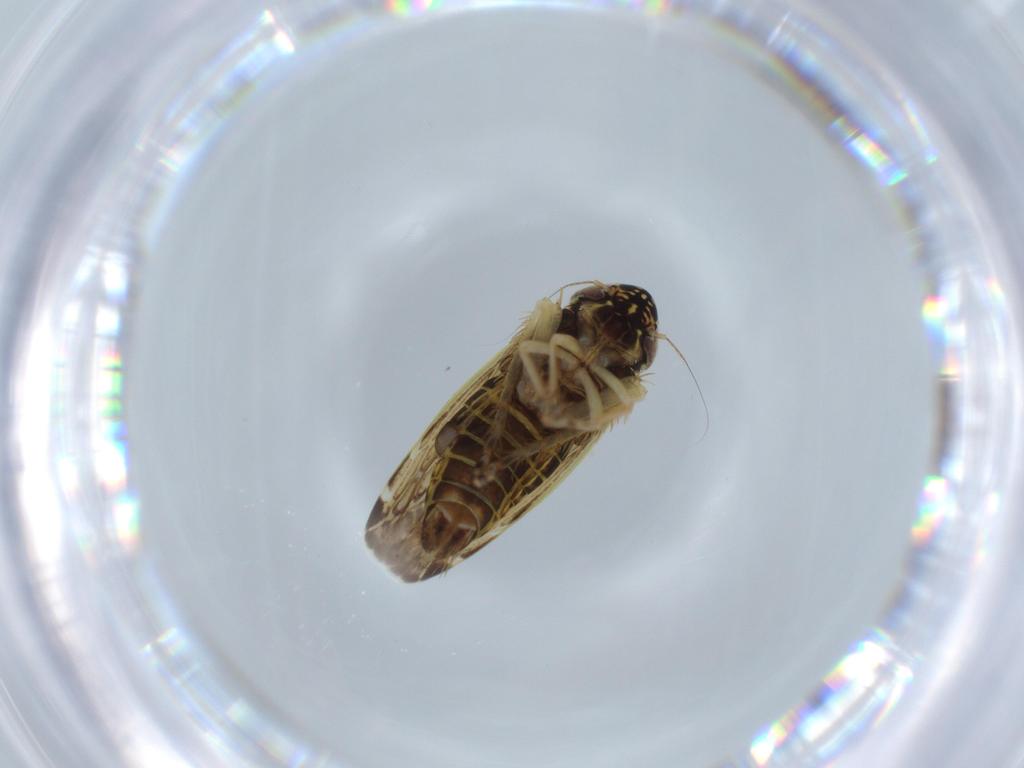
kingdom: Animalia
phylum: Arthropoda
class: Insecta
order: Hemiptera
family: Cicadellidae
